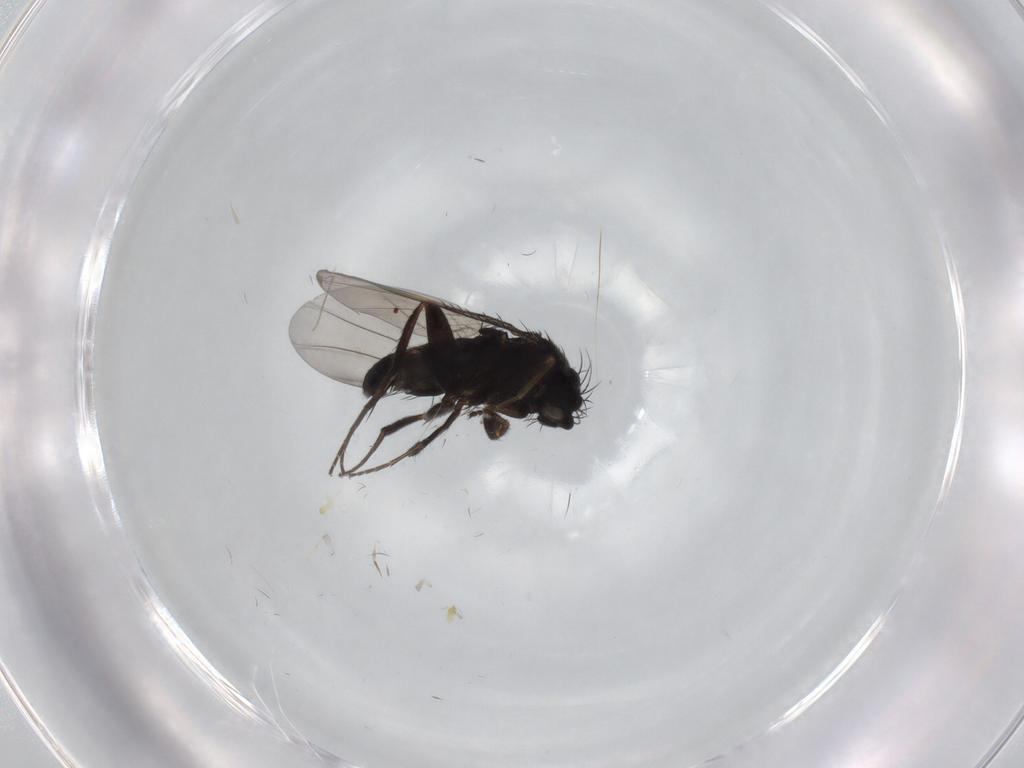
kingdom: Animalia
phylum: Arthropoda
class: Insecta
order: Diptera
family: Phoridae
